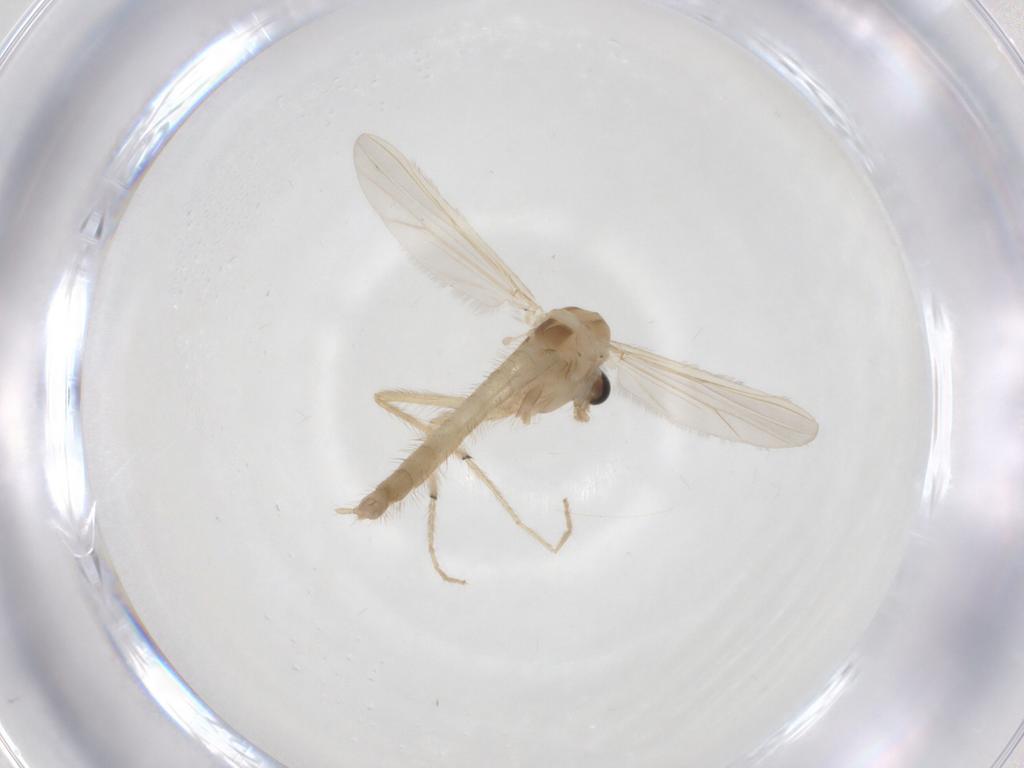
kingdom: Animalia
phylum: Arthropoda
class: Insecta
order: Diptera
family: Chironomidae
